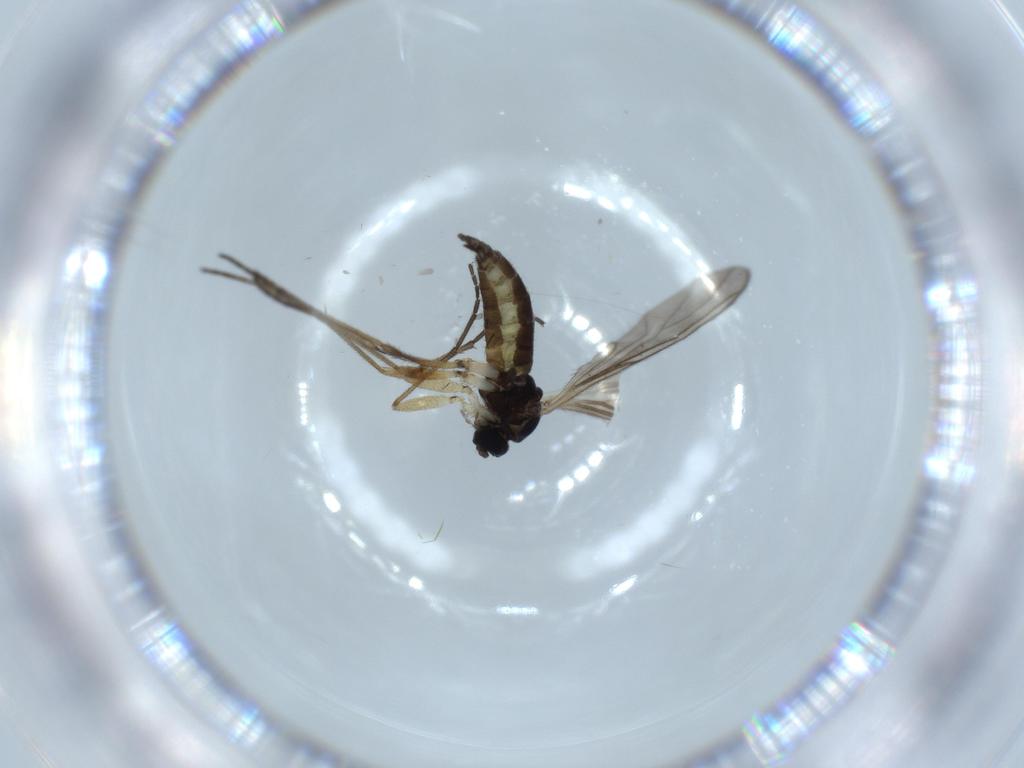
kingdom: Animalia
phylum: Arthropoda
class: Insecta
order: Diptera
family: Sciaridae
